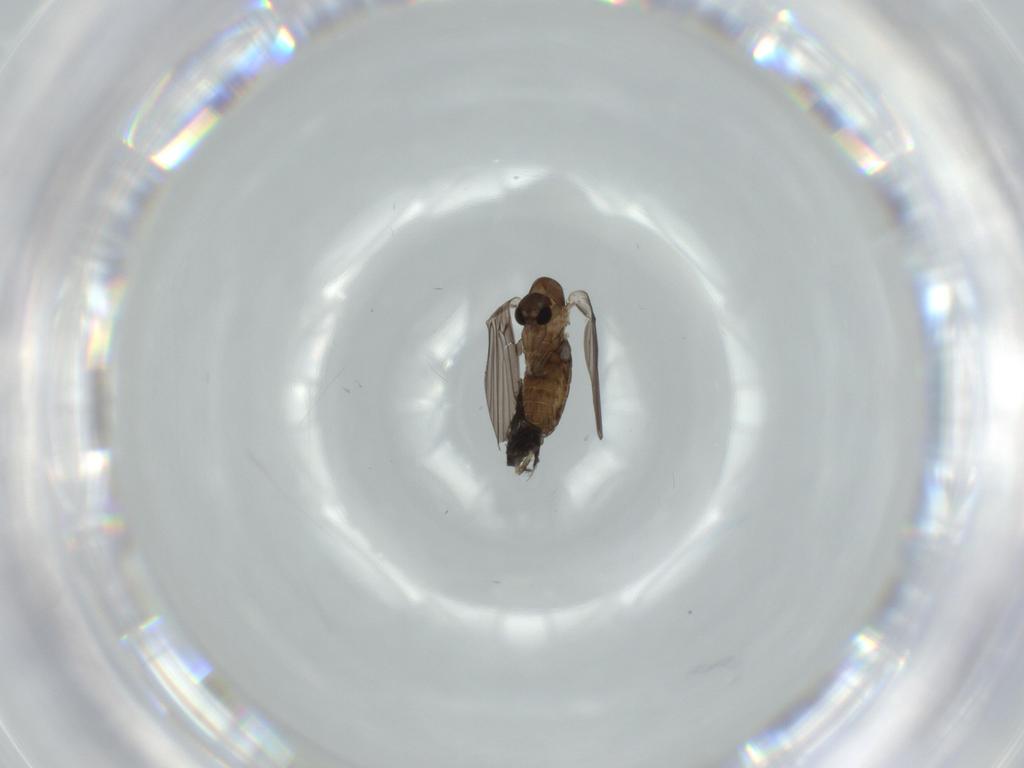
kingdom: Animalia
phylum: Arthropoda
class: Insecta
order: Diptera
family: Psychodidae
